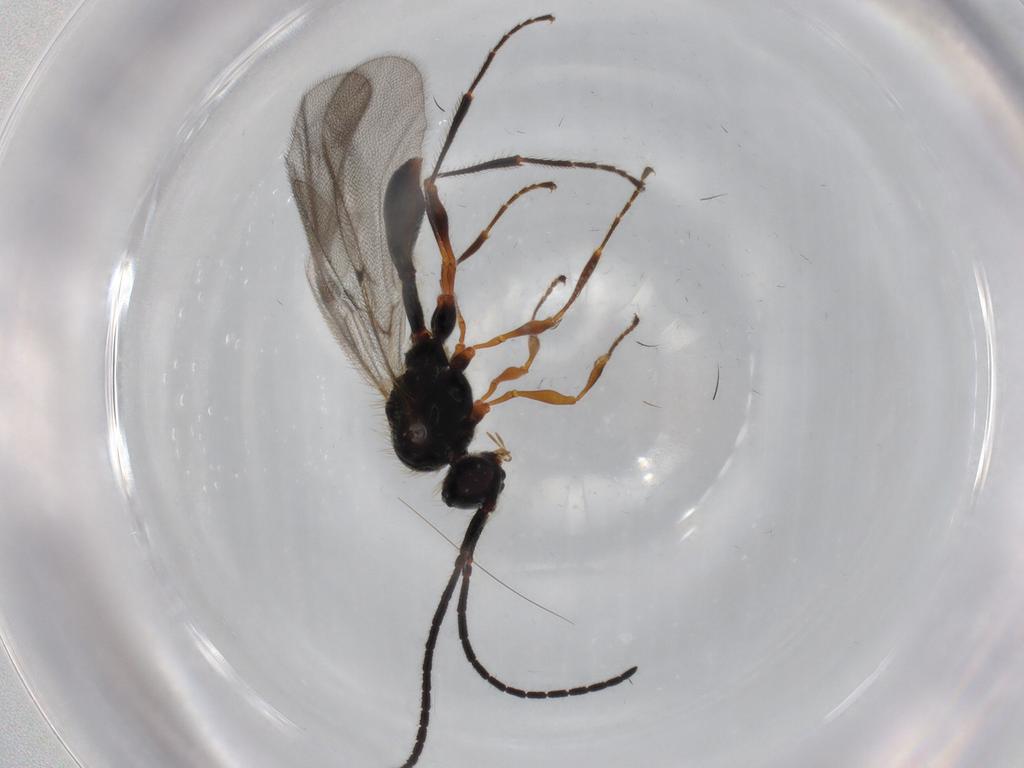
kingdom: Animalia
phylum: Arthropoda
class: Insecta
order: Hymenoptera
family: Diapriidae
